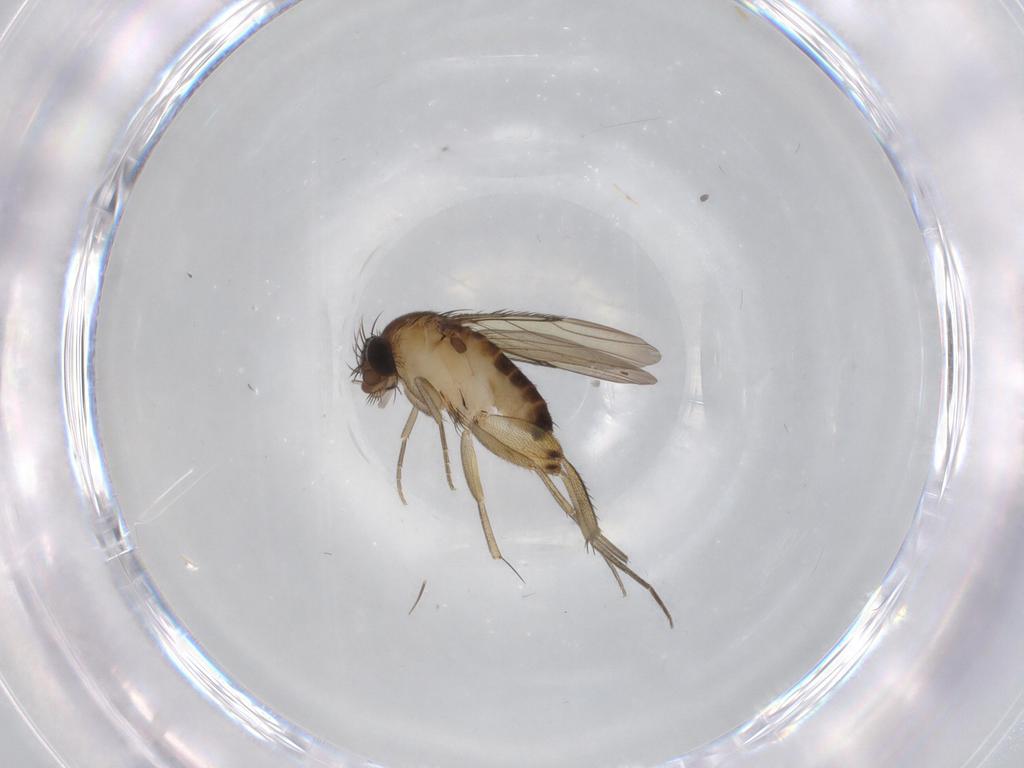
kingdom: Animalia
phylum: Arthropoda
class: Insecta
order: Diptera
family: Phoridae
